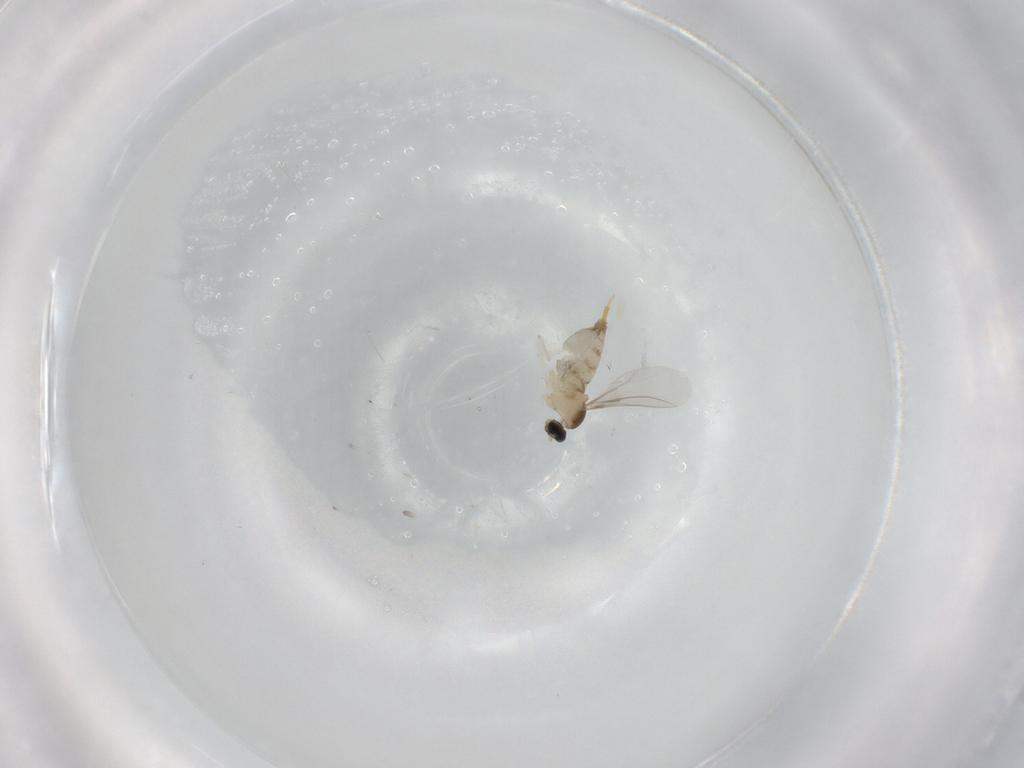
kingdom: Animalia
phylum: Arthropoda
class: Insecta
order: Diptera
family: Cecidomyiidae
